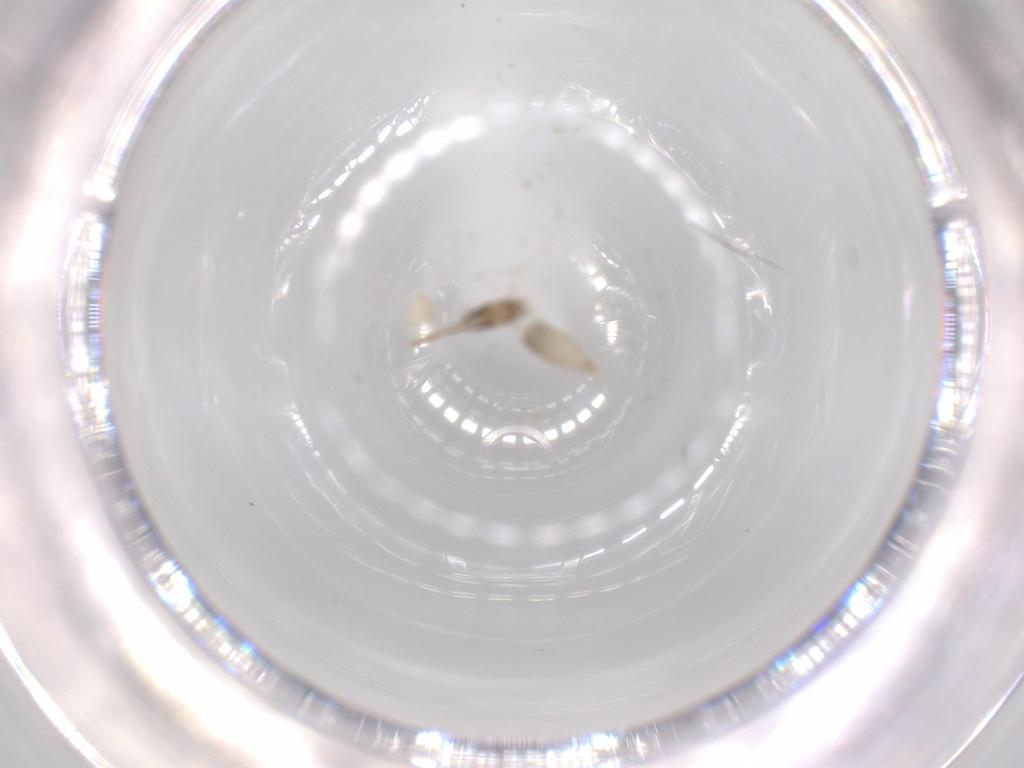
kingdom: Animalia
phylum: Arthropoda
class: Insecta
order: Diptera
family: Cecidomyiidae
